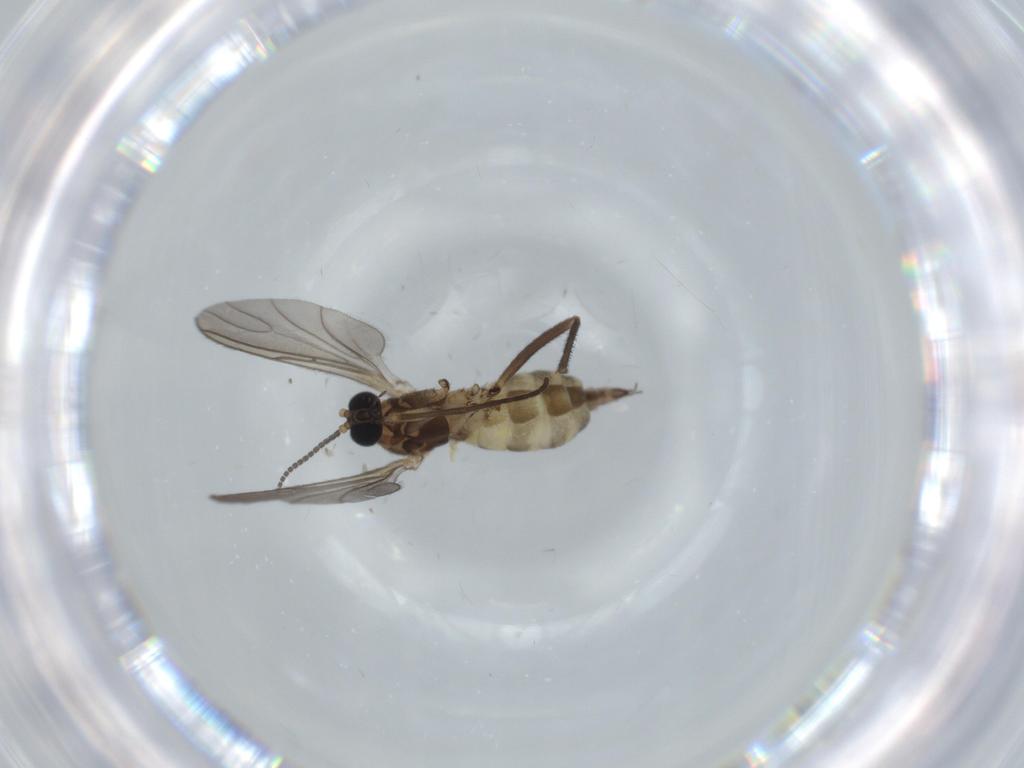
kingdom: Animalia
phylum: Arthropoda
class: Insecta
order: Diptera
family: Sciaridae
